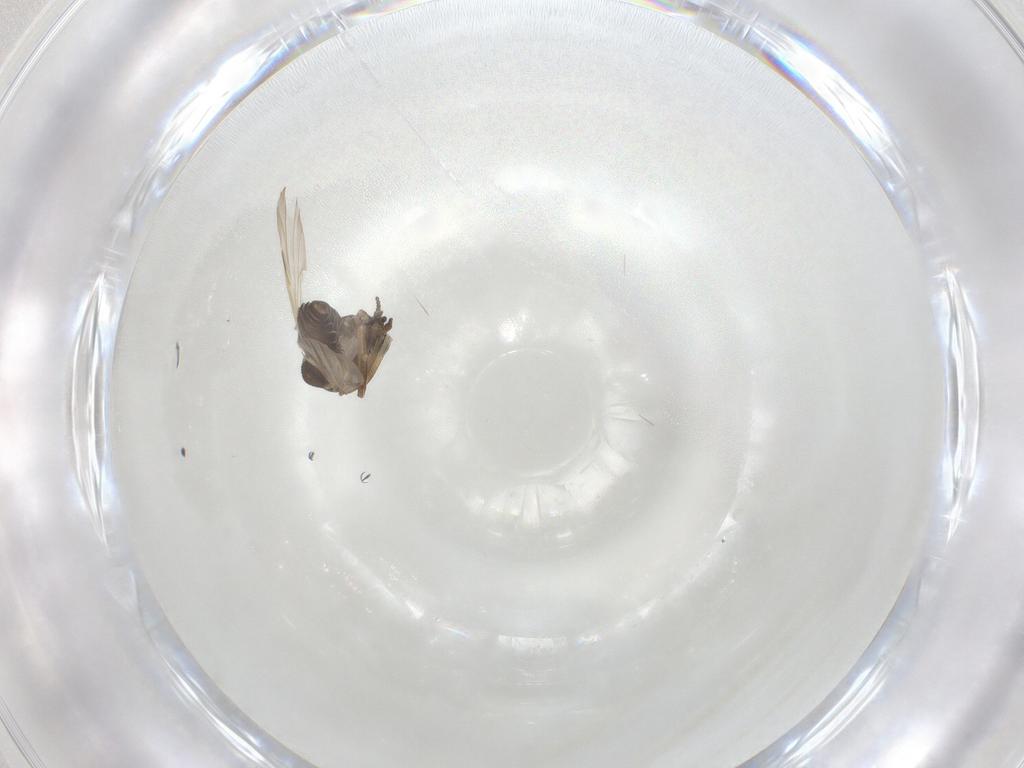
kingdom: Animalia
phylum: Arthropoda
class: Insecta
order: Diptera
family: Ceratopogonidae
